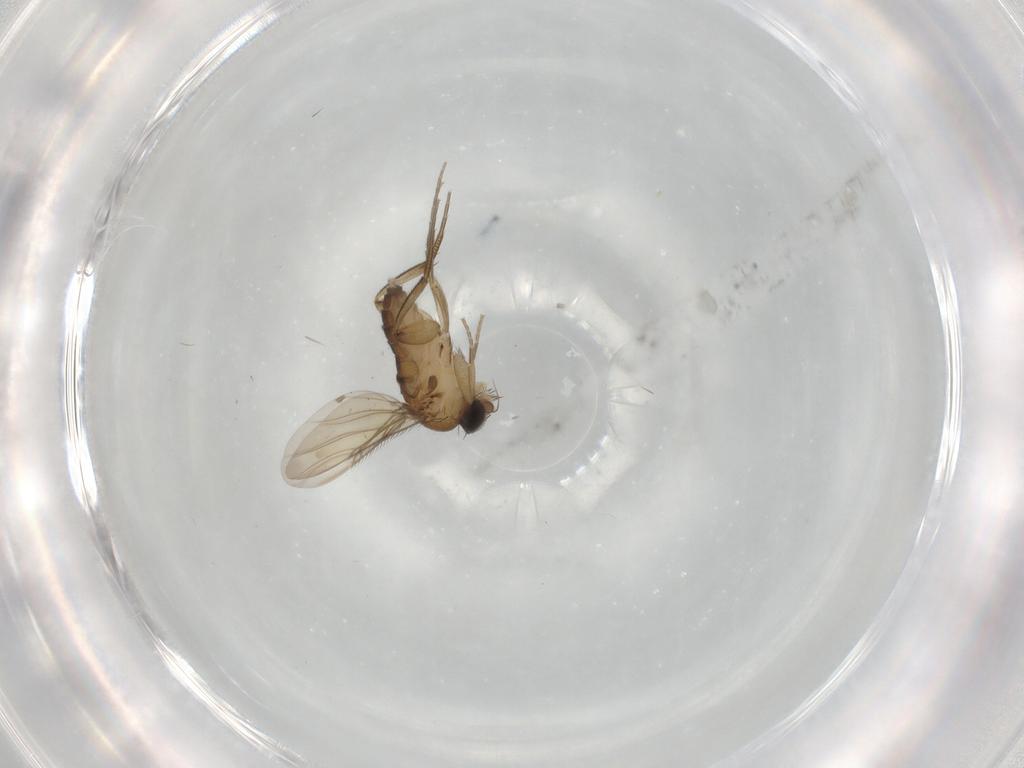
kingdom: Animalia
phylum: Arthropoda
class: Insecta
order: Diptera
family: Phoridae
